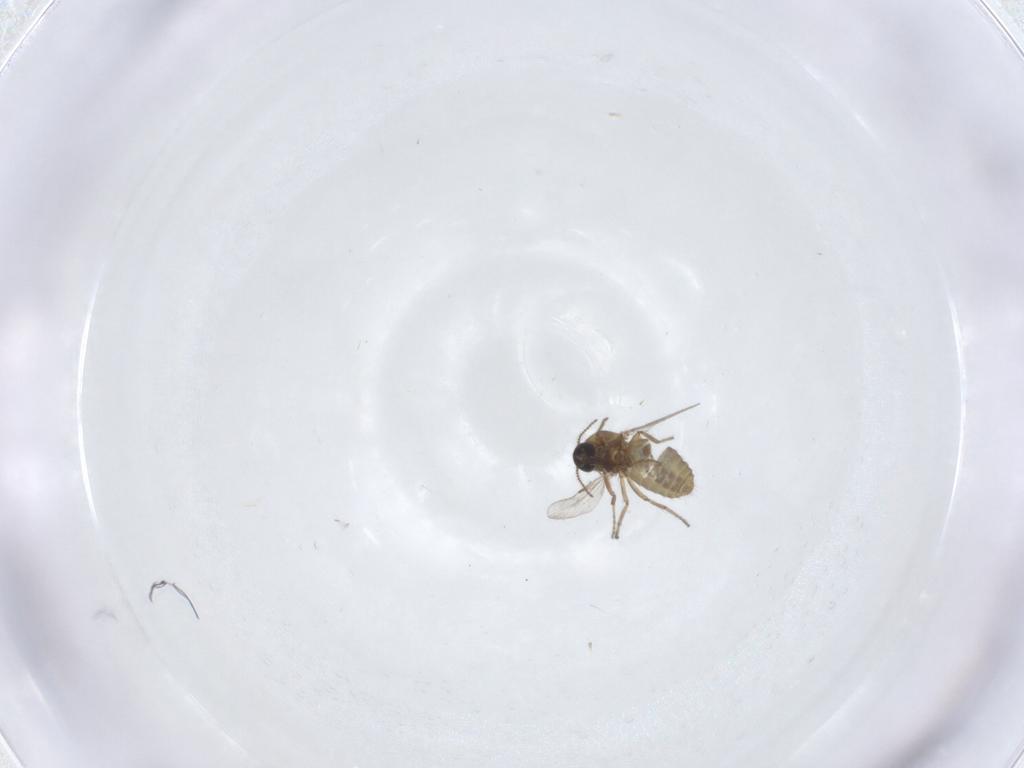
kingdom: Animalia
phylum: Arthropoda
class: Insecta
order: Diptera
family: Ceratopogonidae
